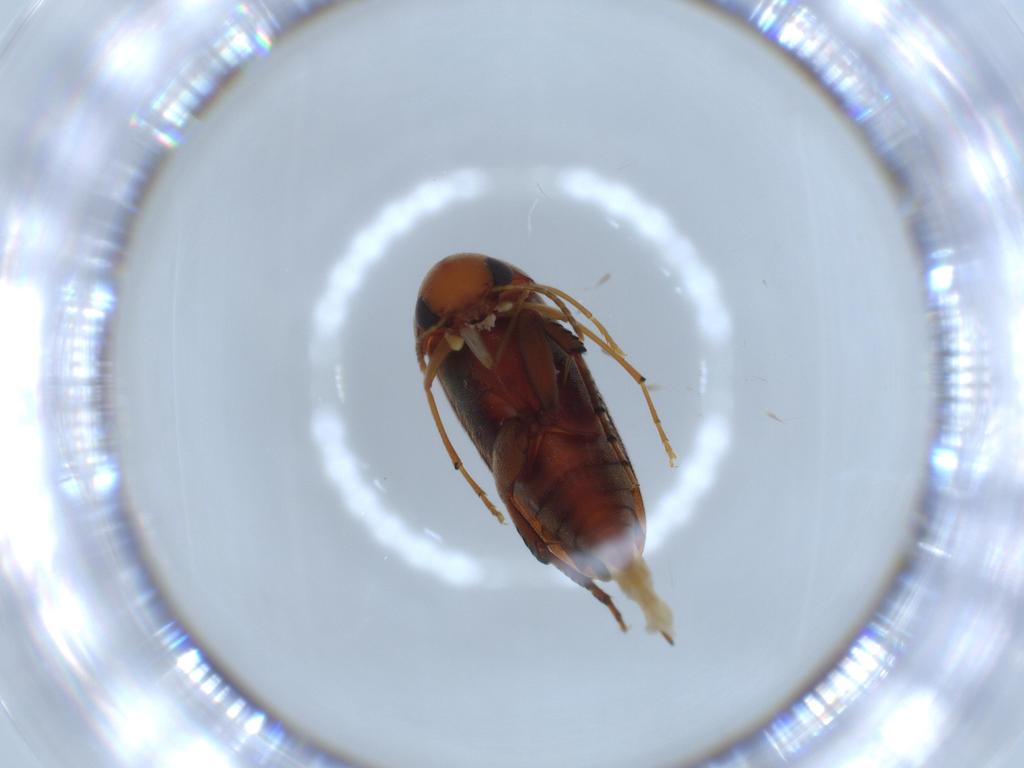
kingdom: Animalia
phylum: Arthropoda
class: Insecta
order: Coleoptera
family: Mordellidae
